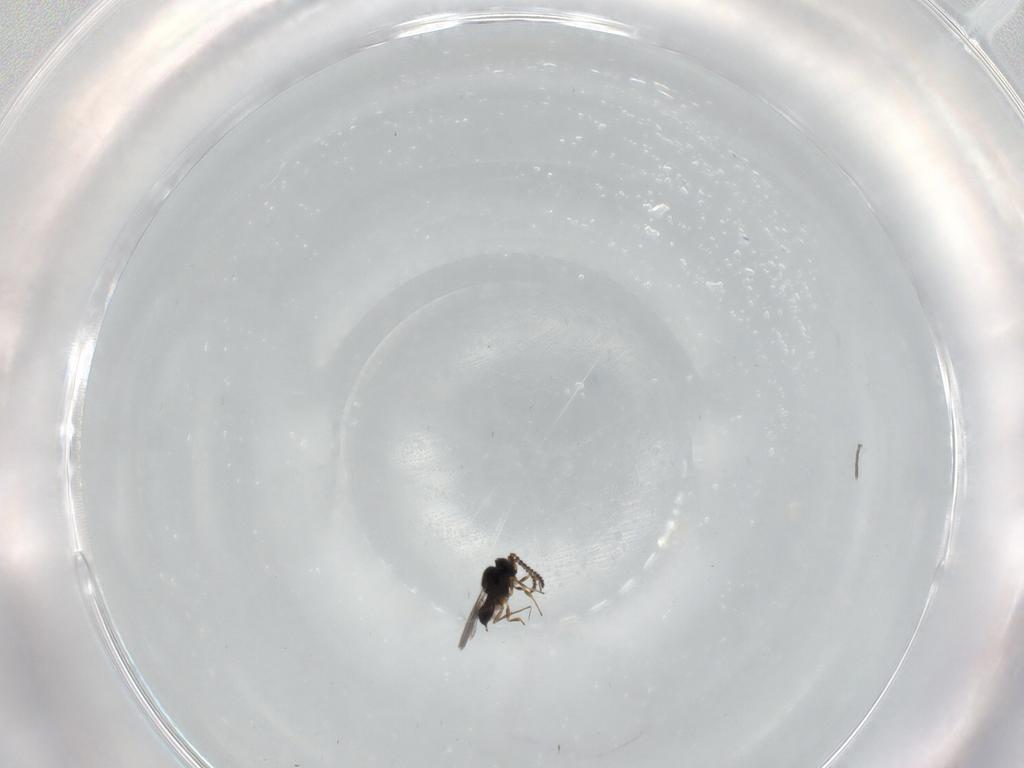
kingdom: Animalia
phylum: Arthropoda
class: Insecta
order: Hymenoptera
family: Scelionidae
